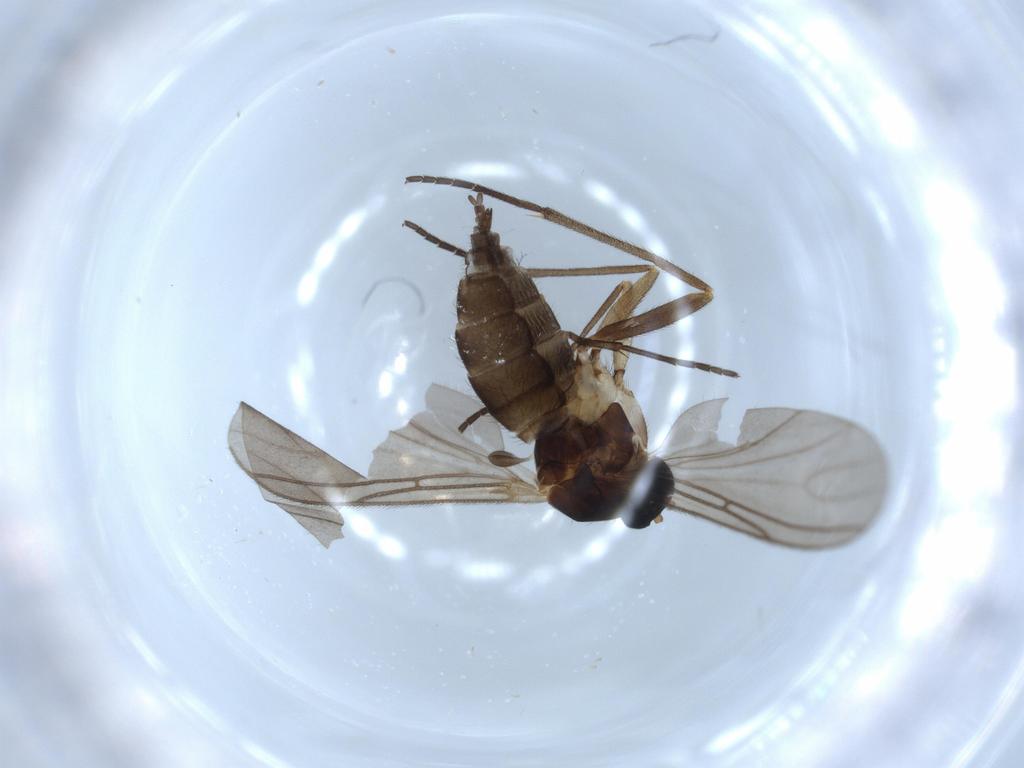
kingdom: Animalia
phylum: Arthropoda
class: Insecta
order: Diptera
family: Sciaridae
